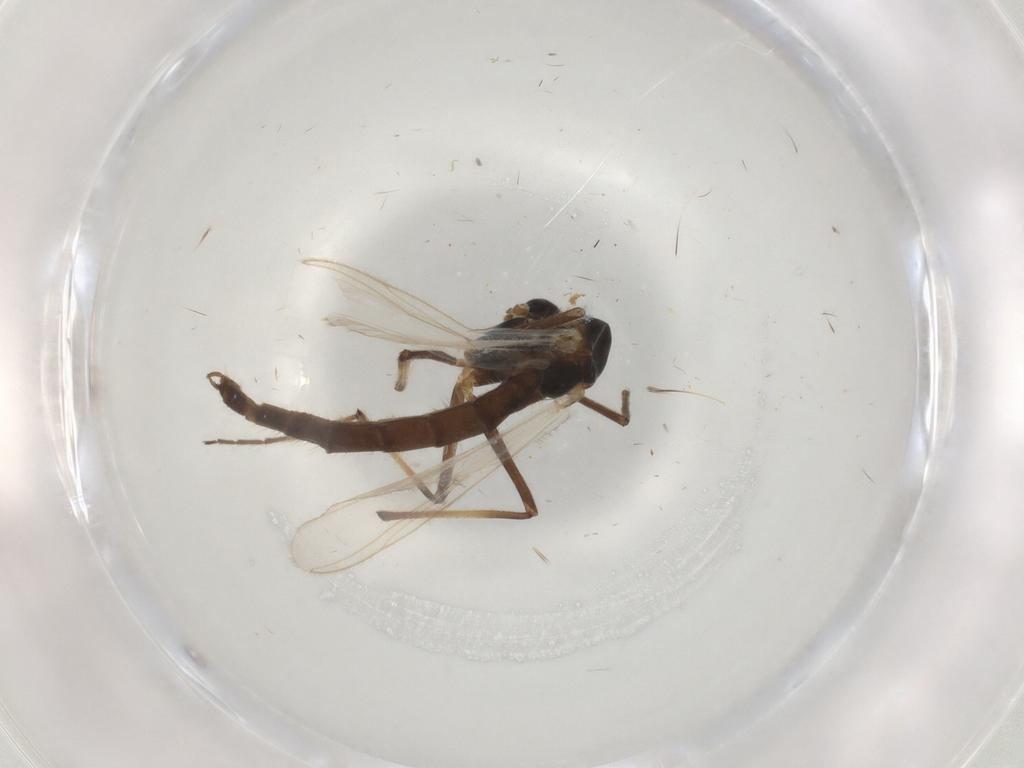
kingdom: Animalia
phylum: Arthropoda
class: Insecta
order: Diptera
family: Chironomidae
